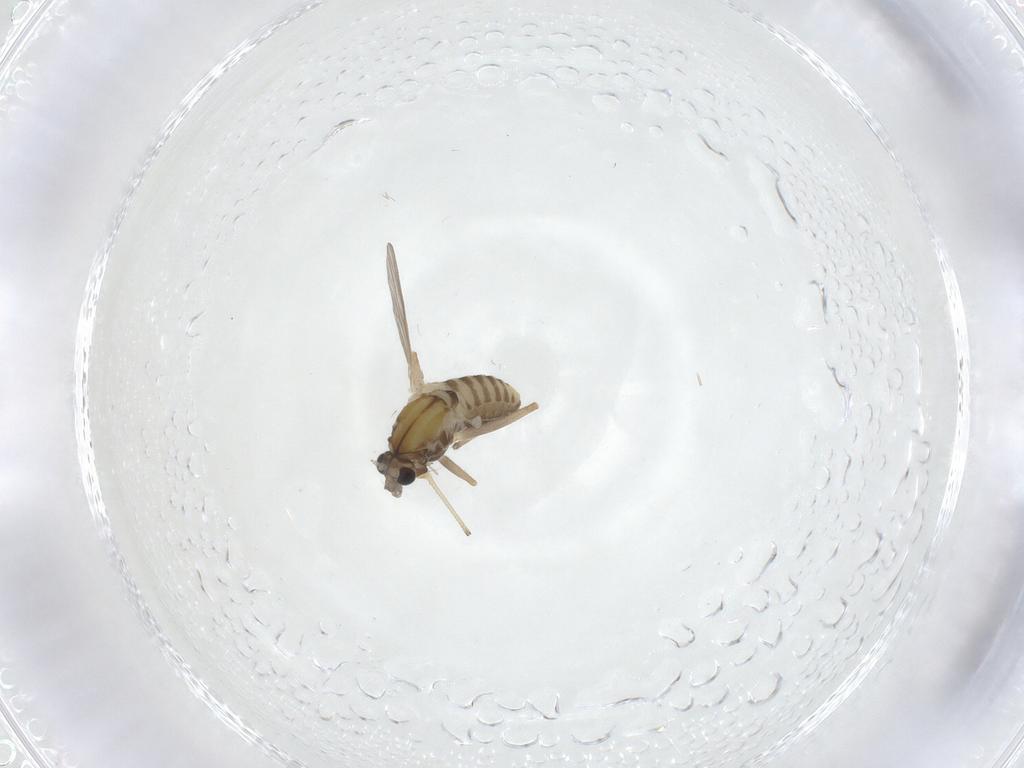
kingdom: Animalia
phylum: Arthropoda
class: Insecta
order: Diptera
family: Chironomidae
